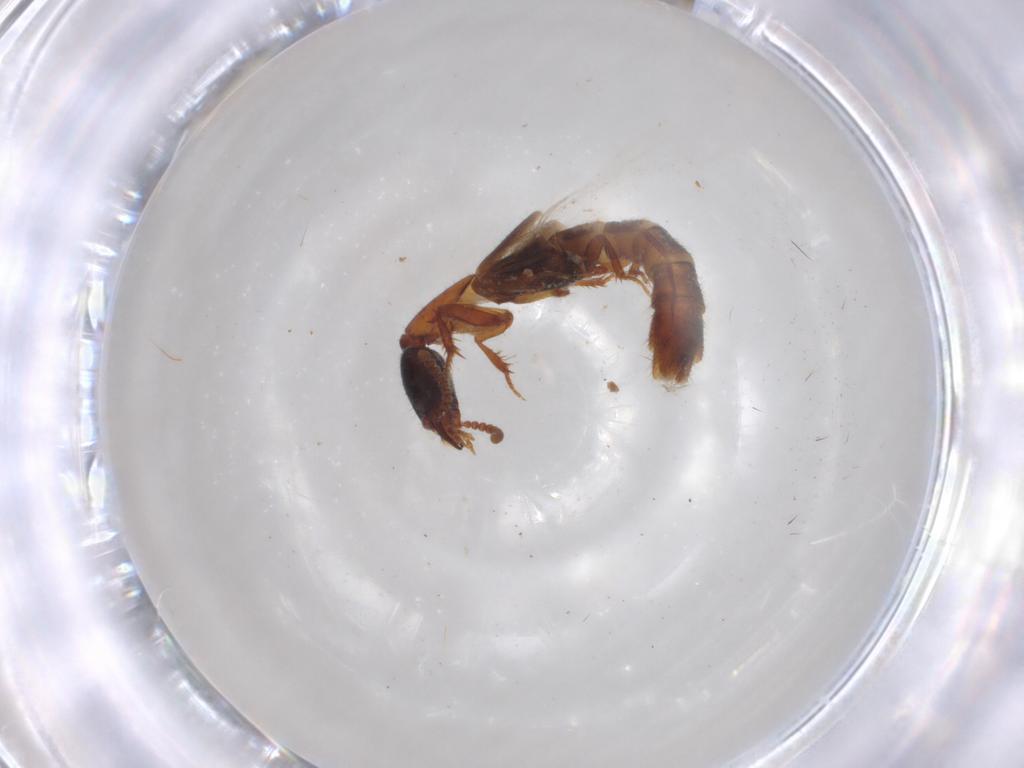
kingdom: Animalia
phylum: Arthropoda
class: Insecta
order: Coleoptera
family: Staphylinidae
